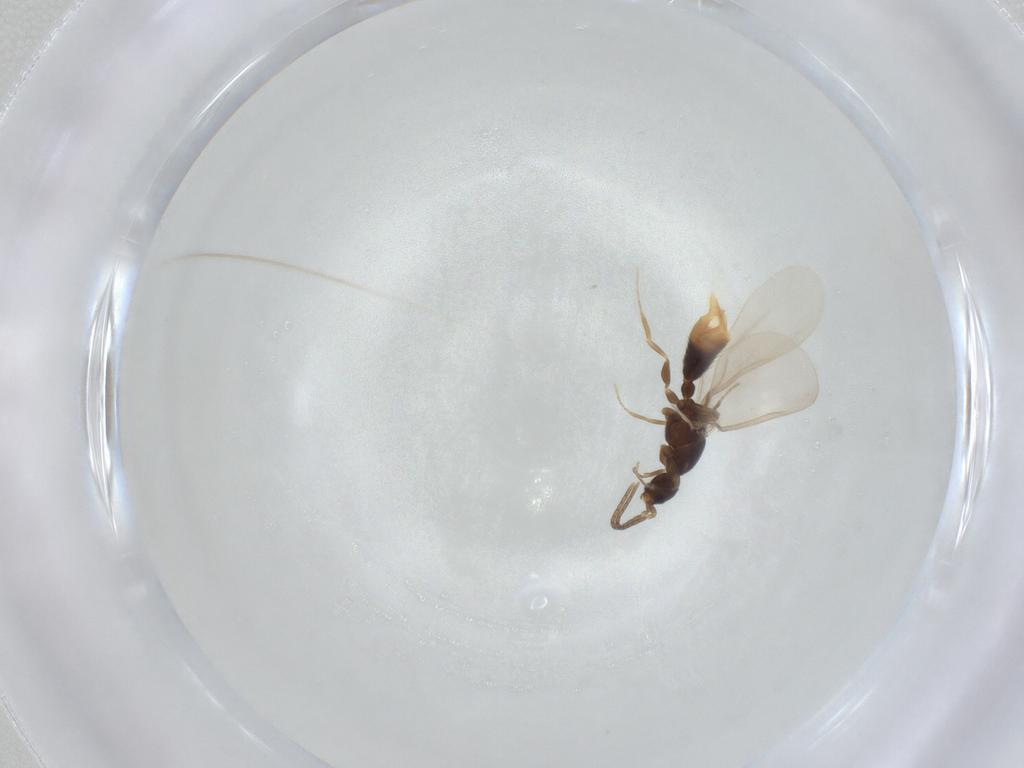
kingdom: Animalia
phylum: Arthropoda
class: Insecta
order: Hymenoptera
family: Formicidae
